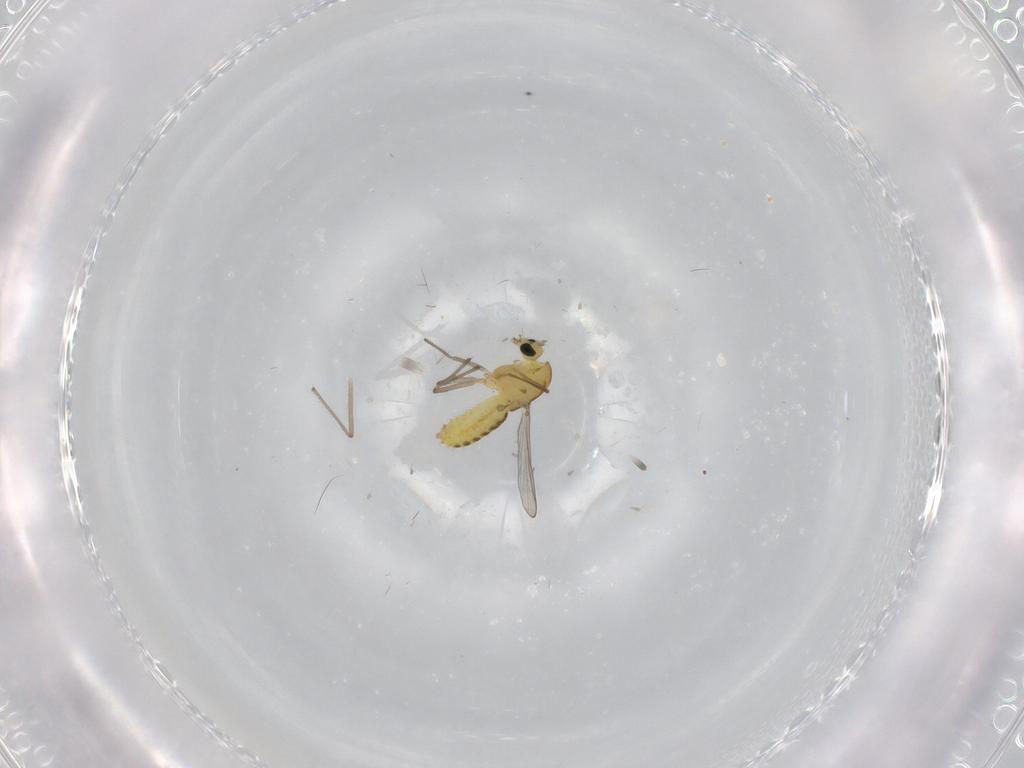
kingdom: Animalia
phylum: Arthropoda
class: Insecta
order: Diptera
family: Chironomidae
